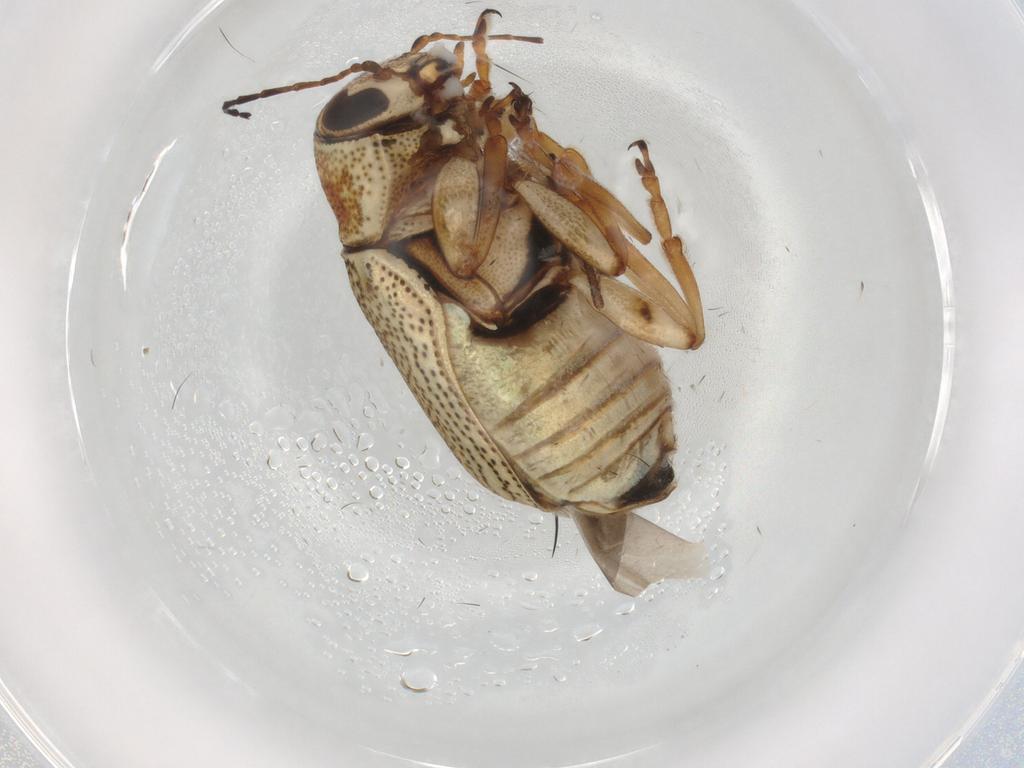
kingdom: Animalia
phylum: Arthropoda
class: Insecta
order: Coleoptera
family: Chrysomelidae
